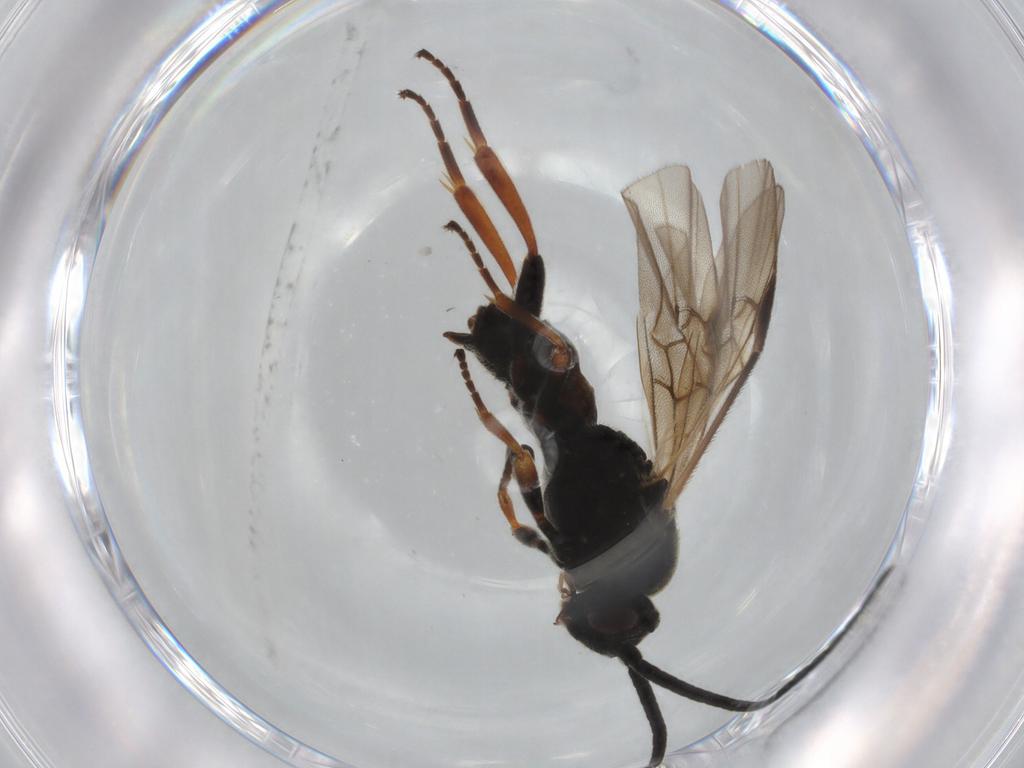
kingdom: Animalia
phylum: Arthropoda
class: Insecta
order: Hymenoptera
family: Braconidae
